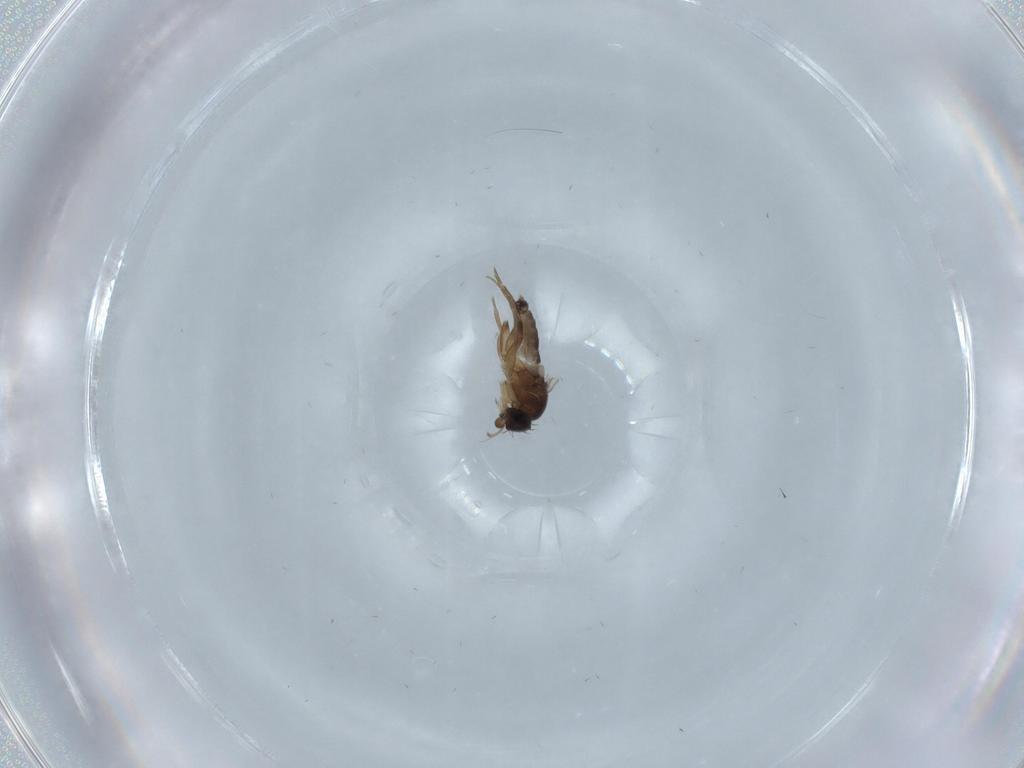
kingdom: Animalia
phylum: Arthropoda
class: Insecta
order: Diptera
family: Phoridae
